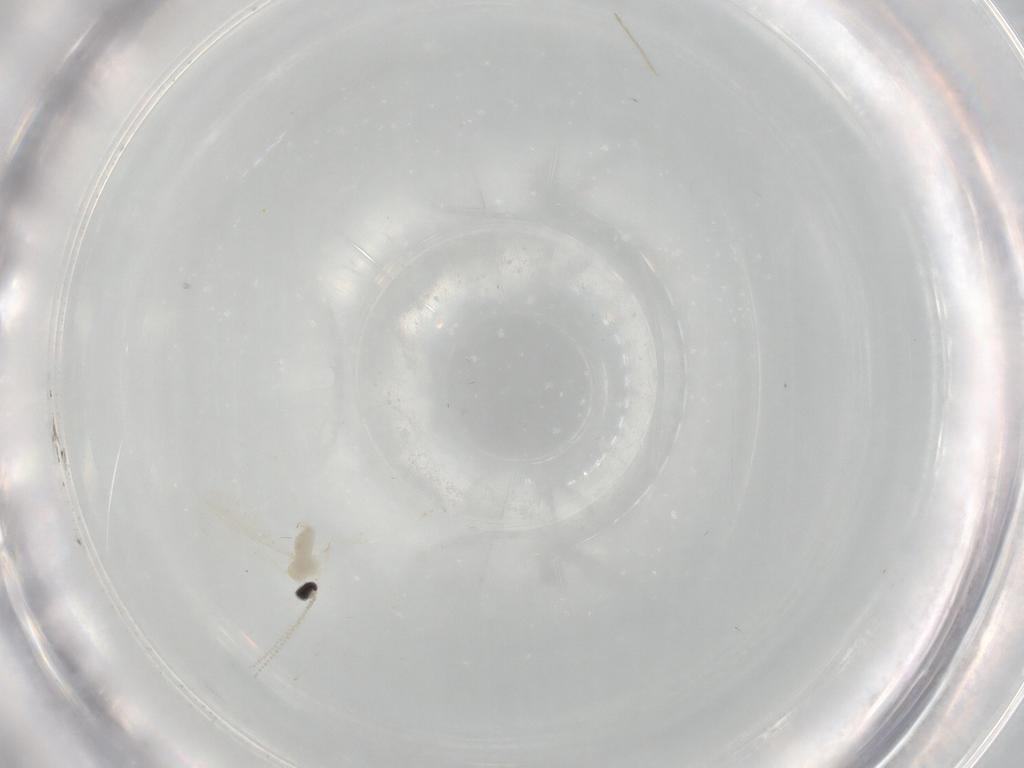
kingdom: Animalia
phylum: Arthropoda
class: Insecta
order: Diptera
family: Cecidomyiidae
